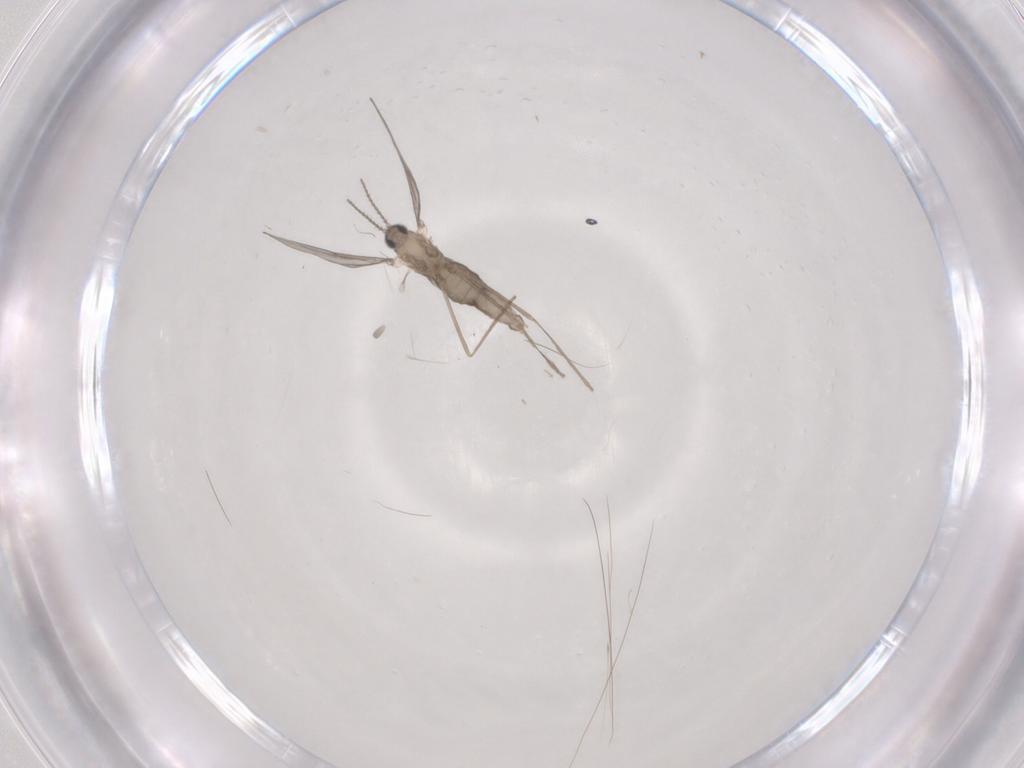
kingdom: Animalia
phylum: Arthropoda
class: Insecta
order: Diptera
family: Cecidomyiidae
